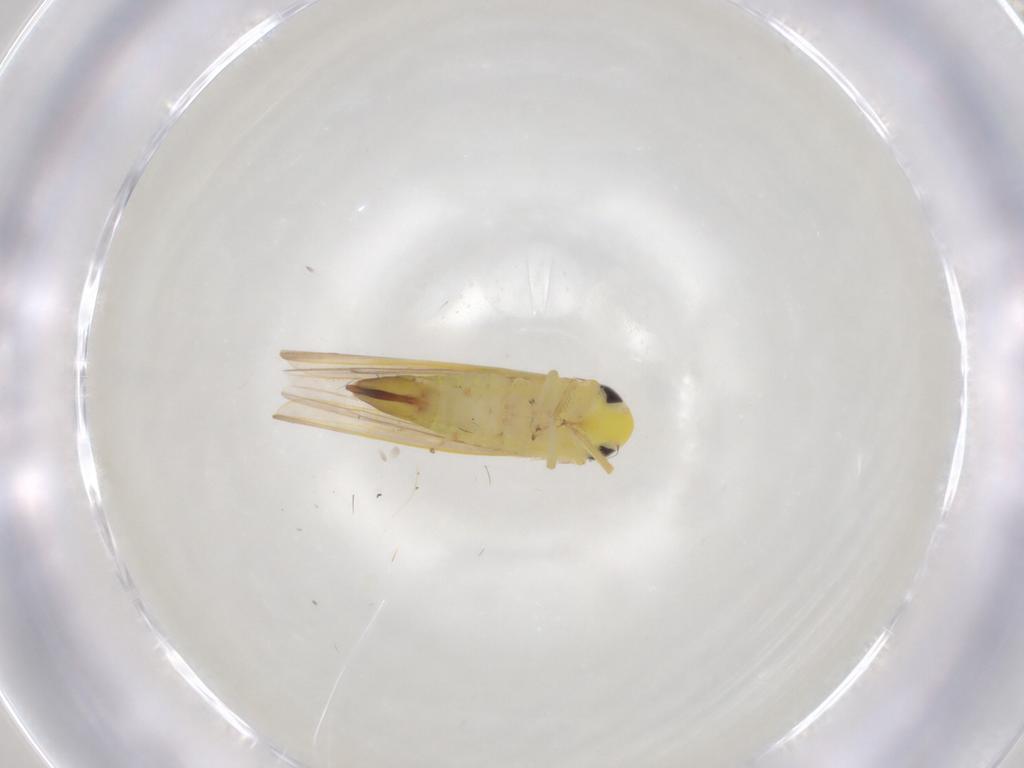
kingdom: Animalia
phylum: Arthropoda
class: Insecta
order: Hemiptera
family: Cicadellidae
